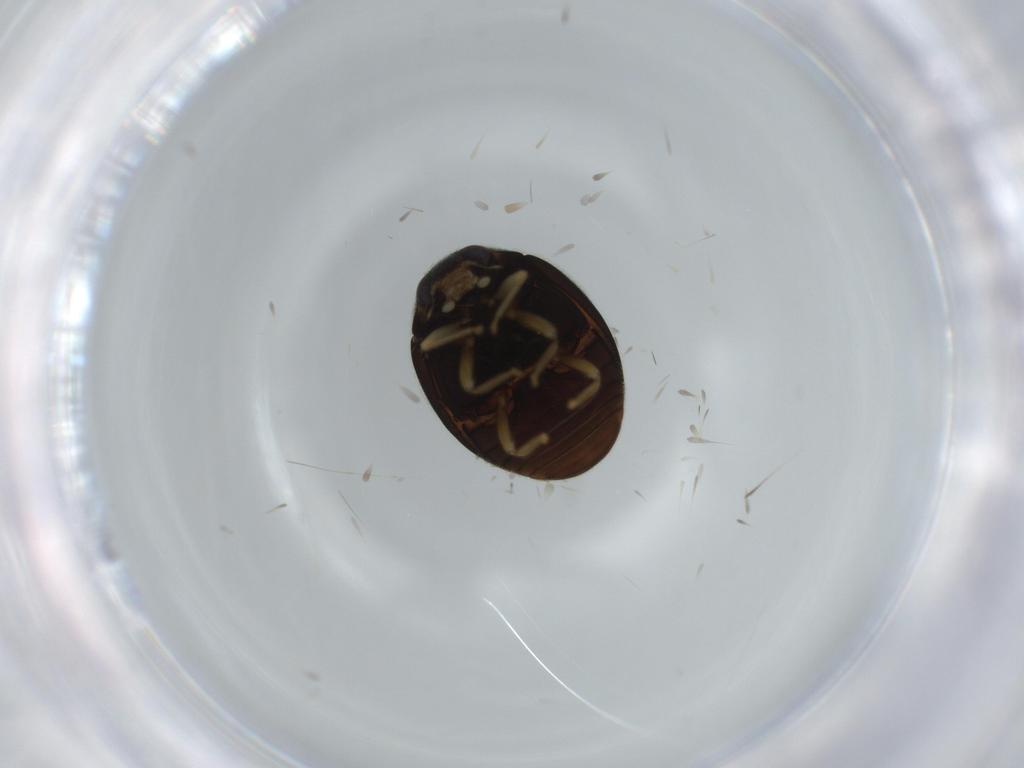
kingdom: Animalia
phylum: Arthropoda
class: Insecta
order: Coleoptera
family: Coccinellidae
